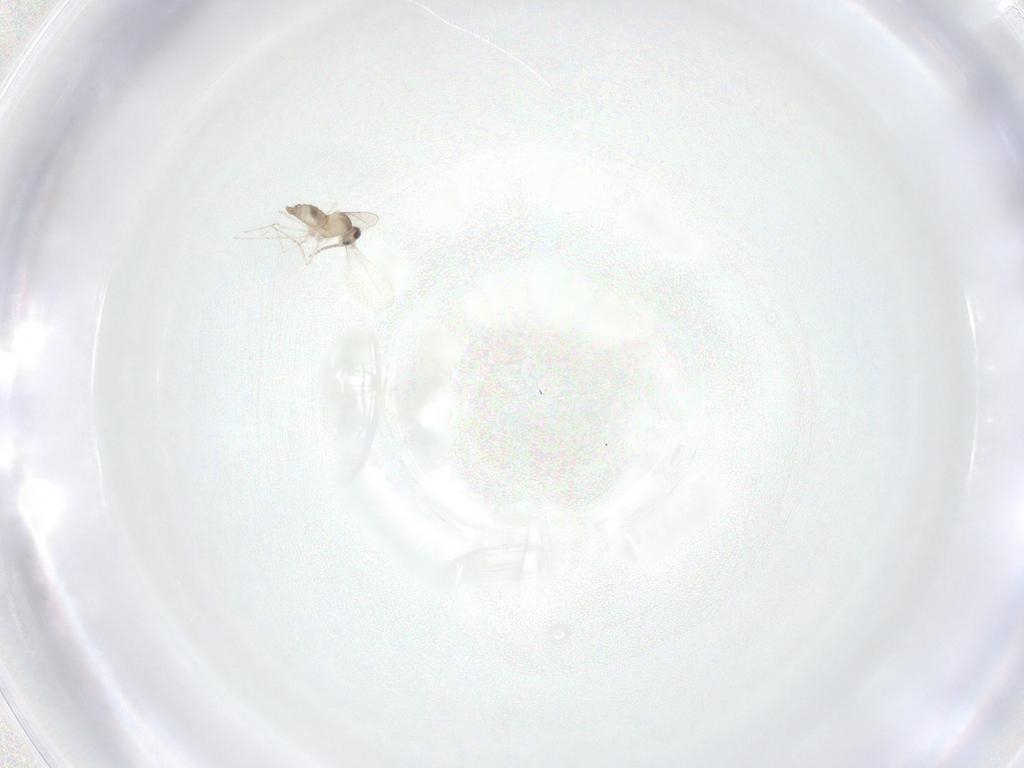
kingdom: Animalia
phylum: Arthropoda
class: Insecta
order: Diptera
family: Cecidomyiidae
